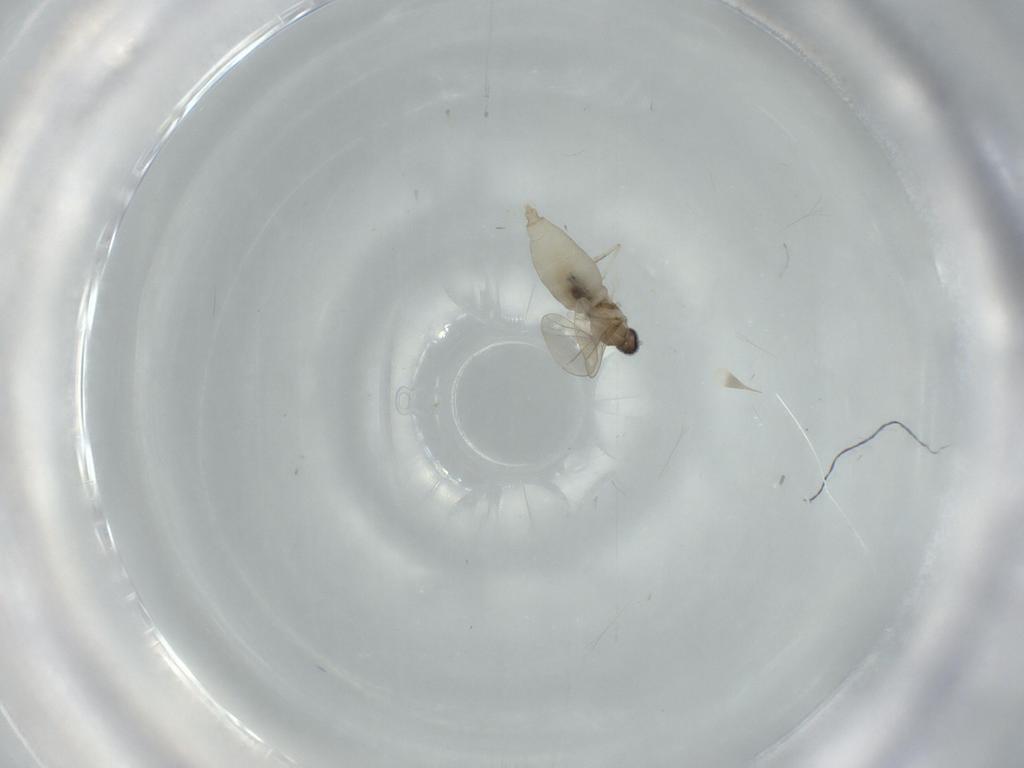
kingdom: Animalia
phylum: Arthropoda
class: Insecta
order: Diptera
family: Cecidomyiidae
